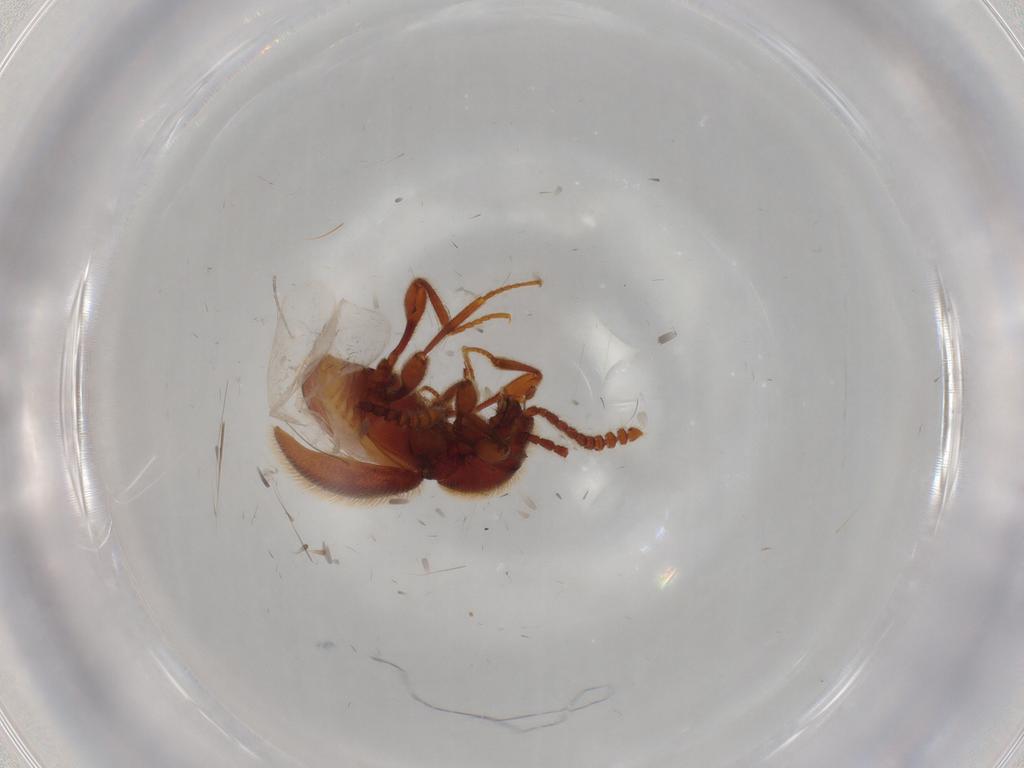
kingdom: Animalia
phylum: Arthropoda
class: Insecta
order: Coleoptera
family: Staphylinidae
